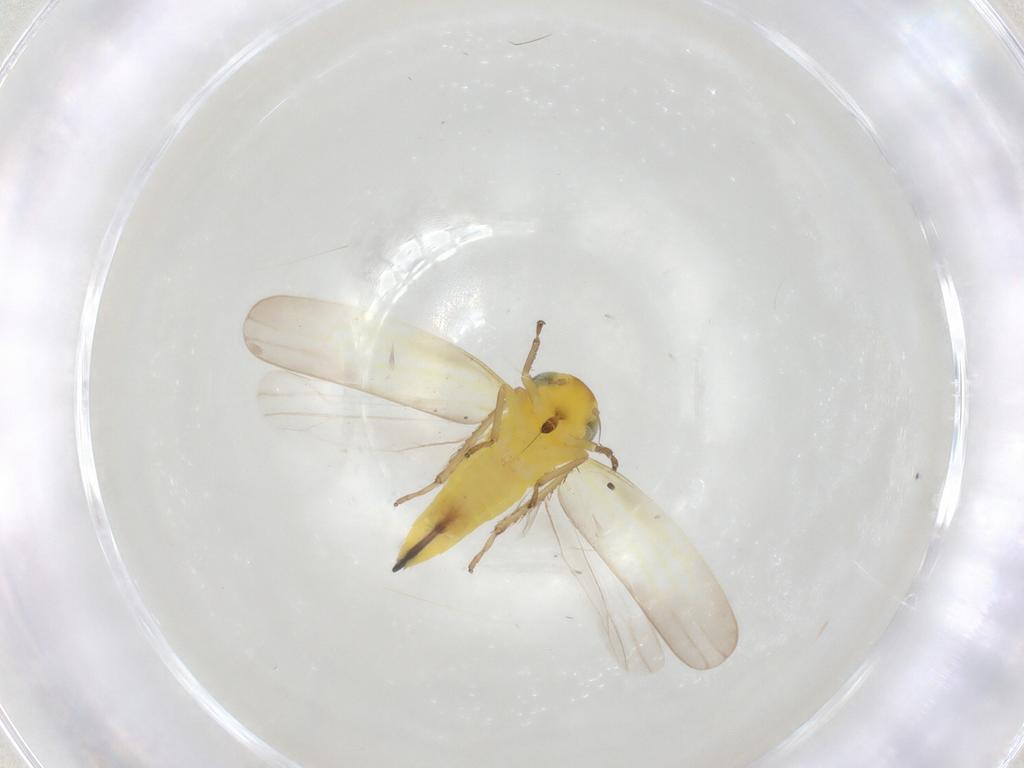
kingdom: Animalia
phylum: Arthropoda
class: Insecta
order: Hemiptera
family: Cicadellidae
